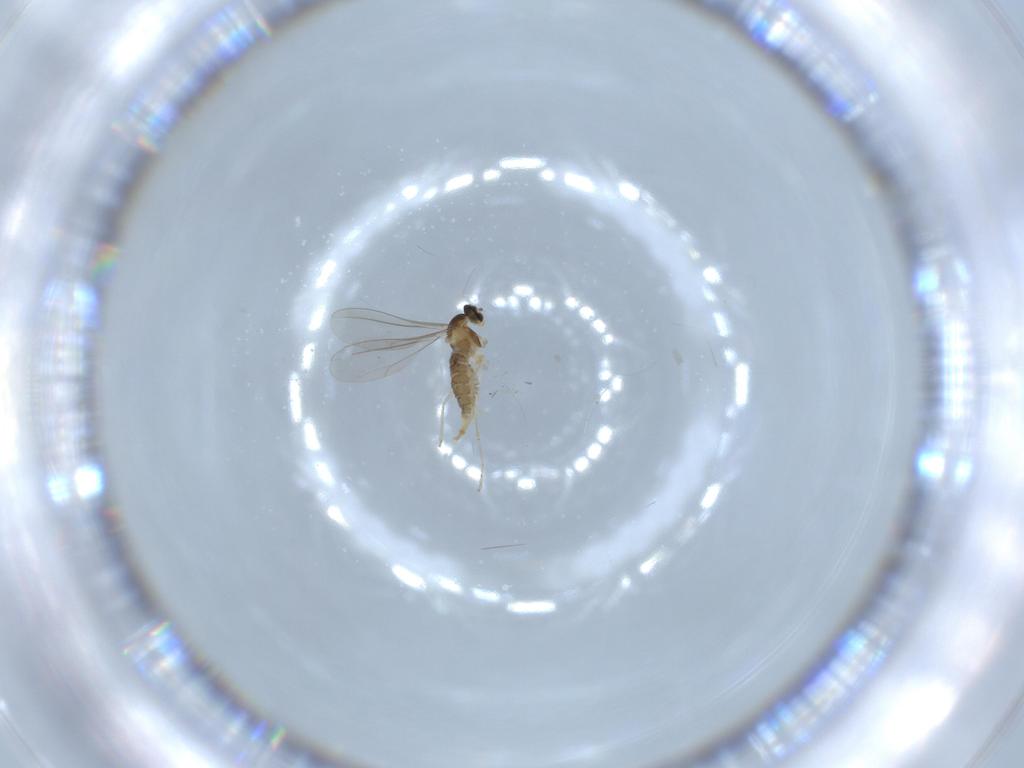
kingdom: Animalia
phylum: Arthropoda
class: Insecta
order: Diptera
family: Cecidomyiidae
